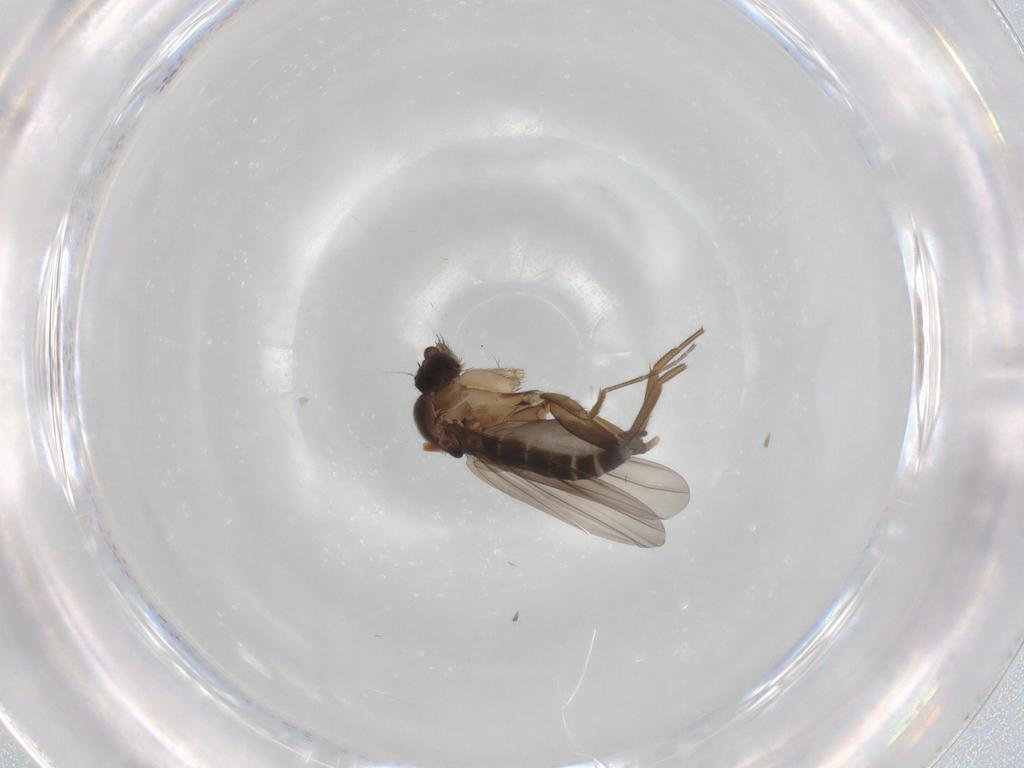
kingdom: Animalia
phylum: Arthropoda
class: Insecta
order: Diptera
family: Phoridae
